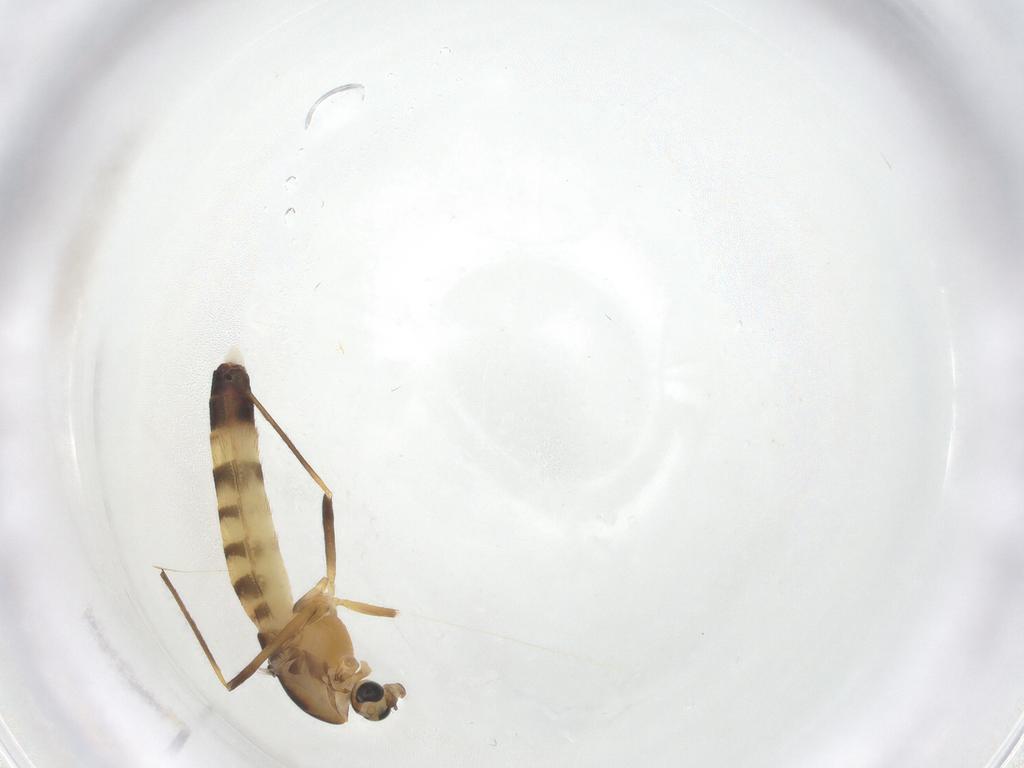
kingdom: Animalia
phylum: Arthropoda
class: Insecta
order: Diptera
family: Chironomidae
